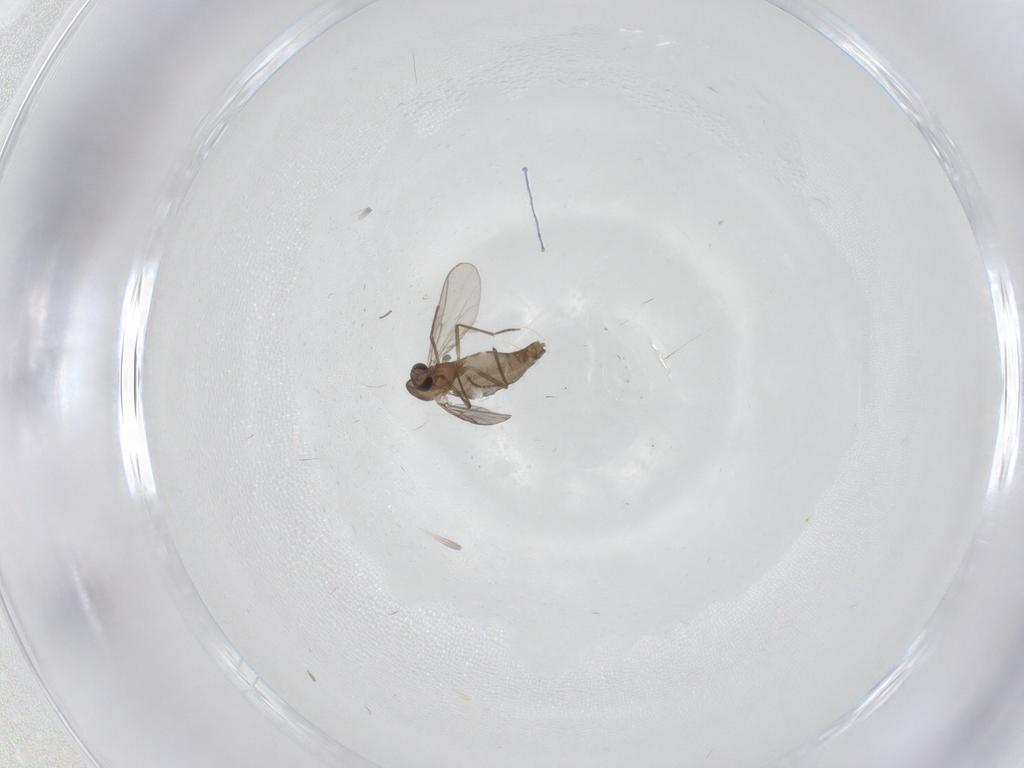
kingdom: Animalia
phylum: Arthropoda
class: Insecta
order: Diptera
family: Cecidomyiidae
